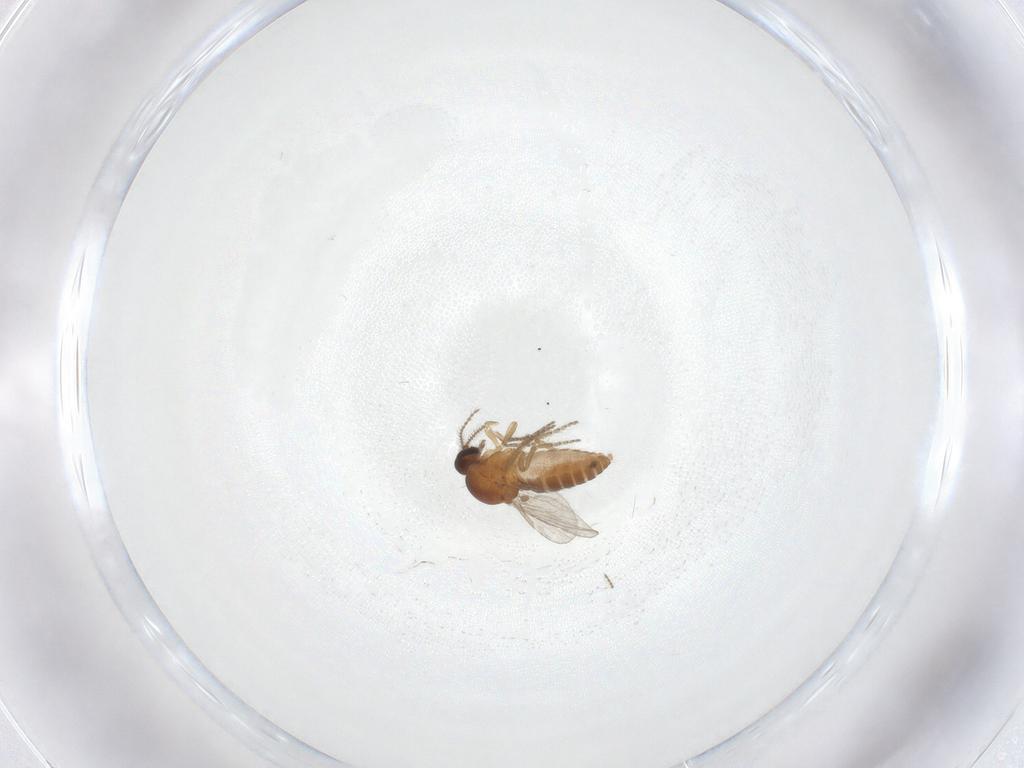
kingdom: Animalia
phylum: Arthropoda
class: Insecta
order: Diptera
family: Ceratopogonidae
